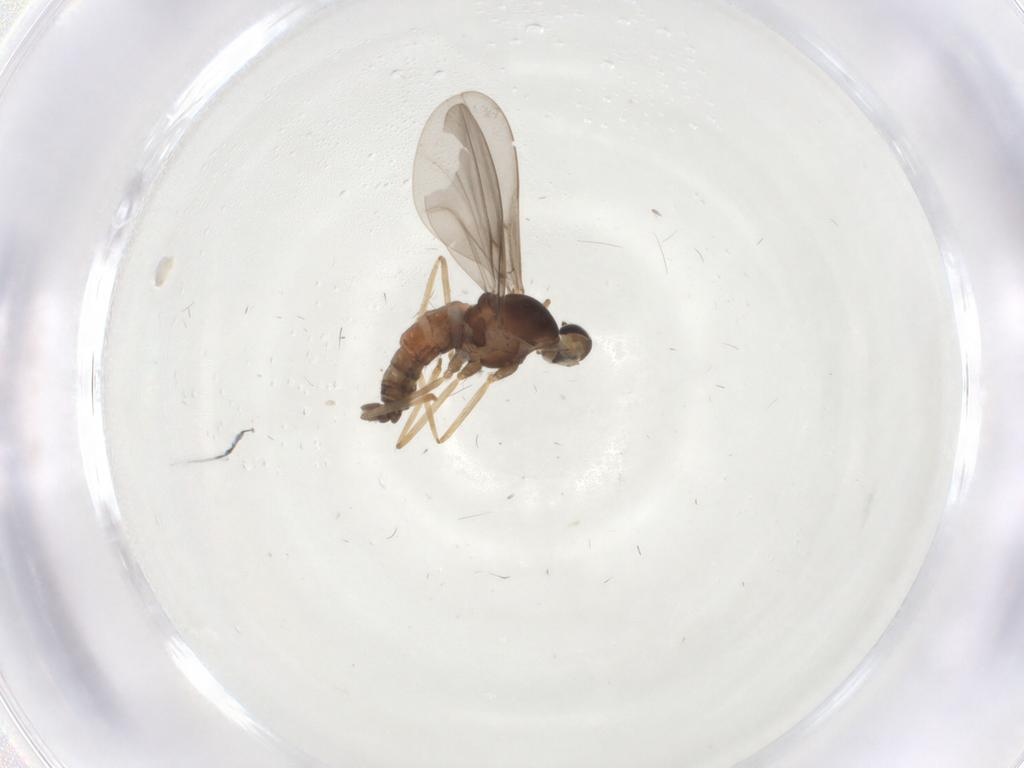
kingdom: Animalia
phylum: Arthropoda
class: Insecta
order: Diptera
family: Cecidomyiidae
